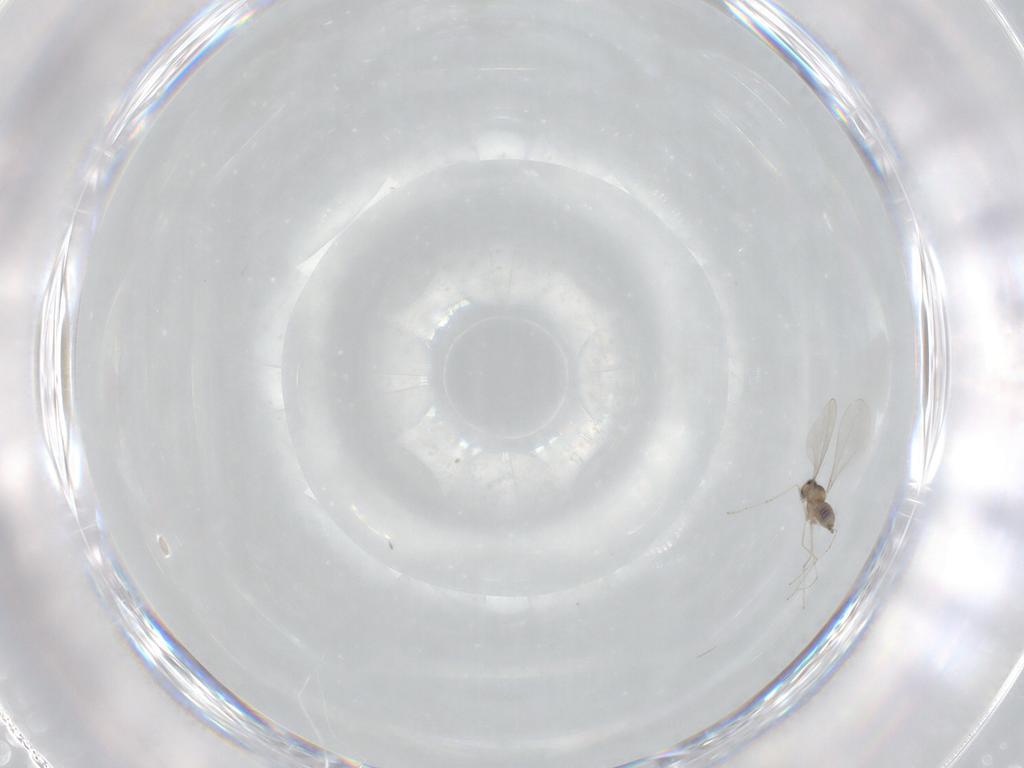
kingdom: Animalia
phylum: Arthropoda
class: Insecta
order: Diptera
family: Cecidomyiidae
